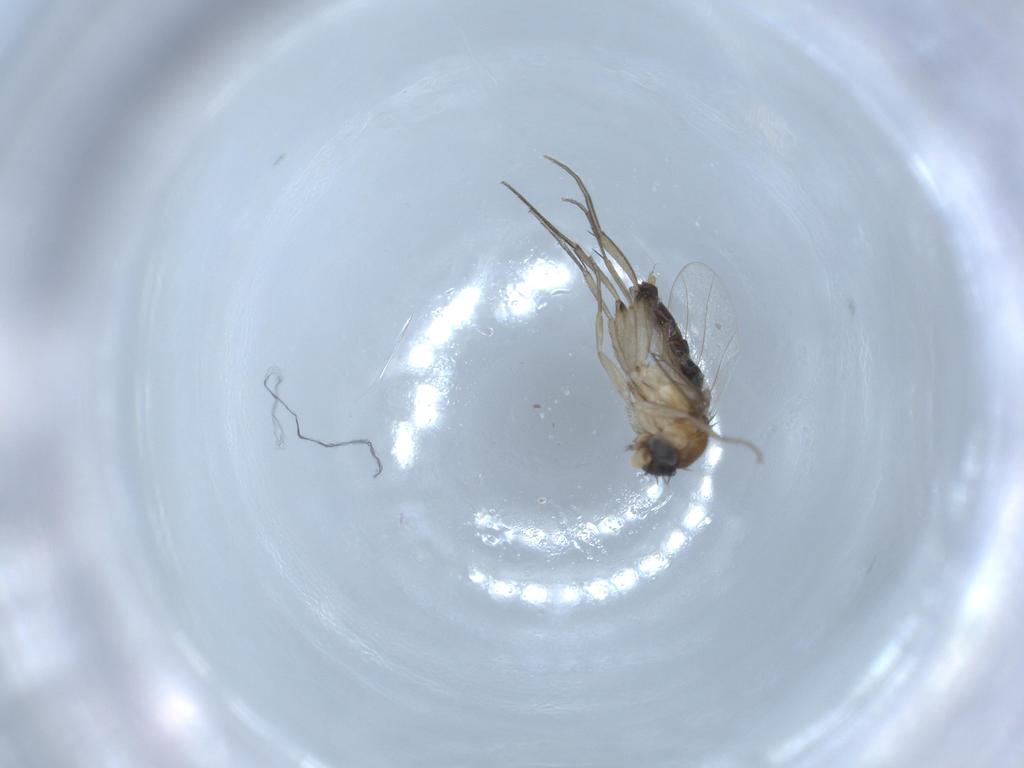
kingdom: Animalia
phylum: Arthropoda
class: Insecta
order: Diptera
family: Phoridae
